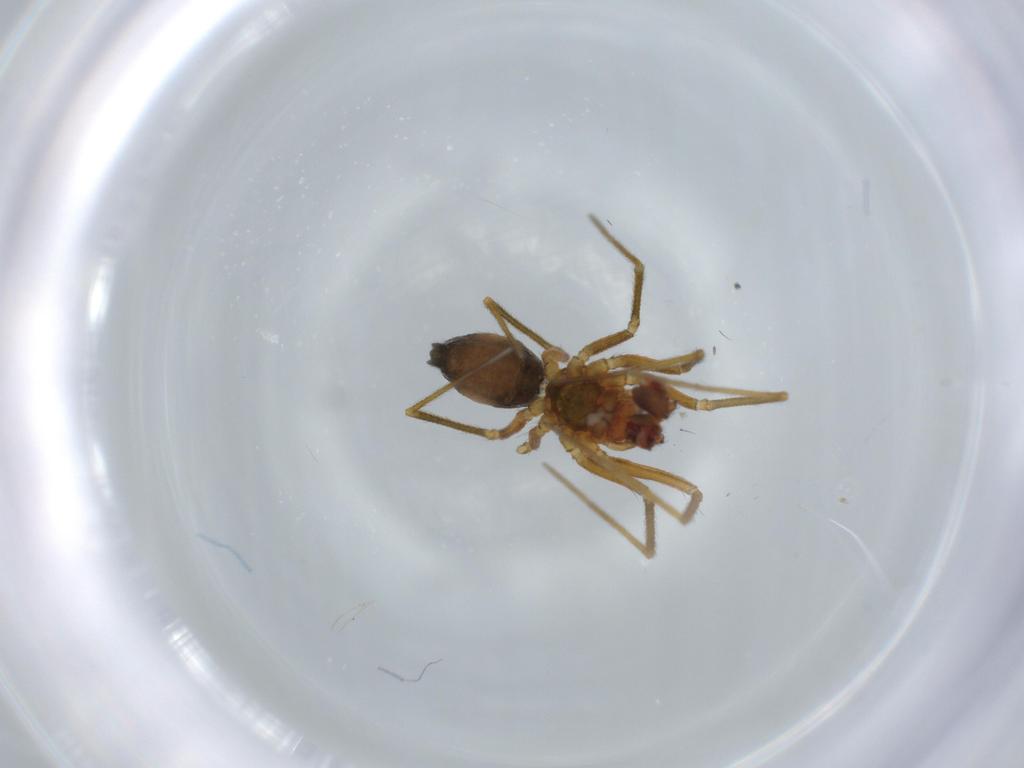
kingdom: Animalia
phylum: Arthropoda
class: Arachnida
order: Araneae
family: Linyphiidae
